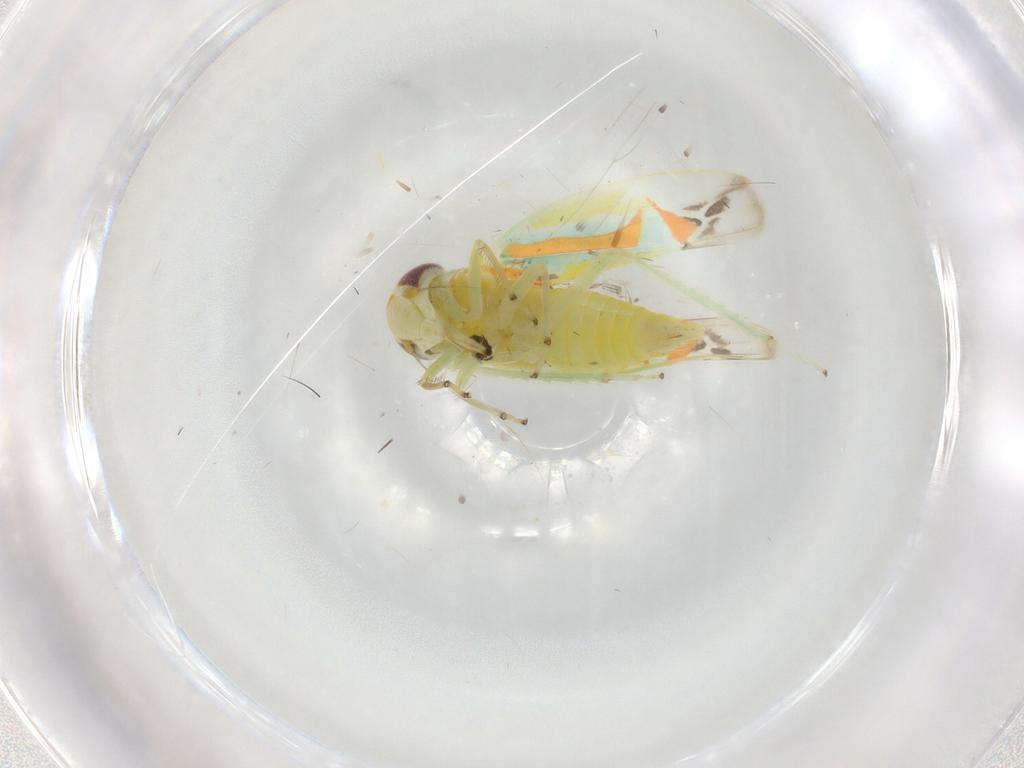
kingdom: Animalia
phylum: Arthropoda
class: Insecta
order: Hemiptera
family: Cicadellidae
